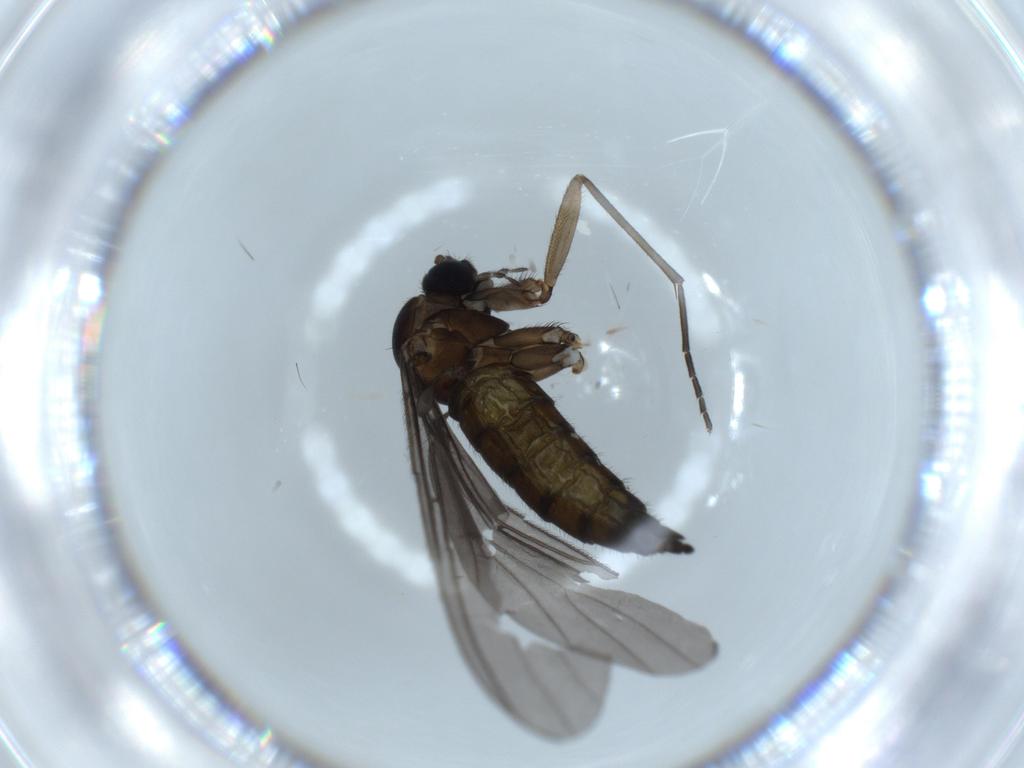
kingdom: Animalia
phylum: Arthropoda
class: Insecta
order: Diptera
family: Sciaridae
